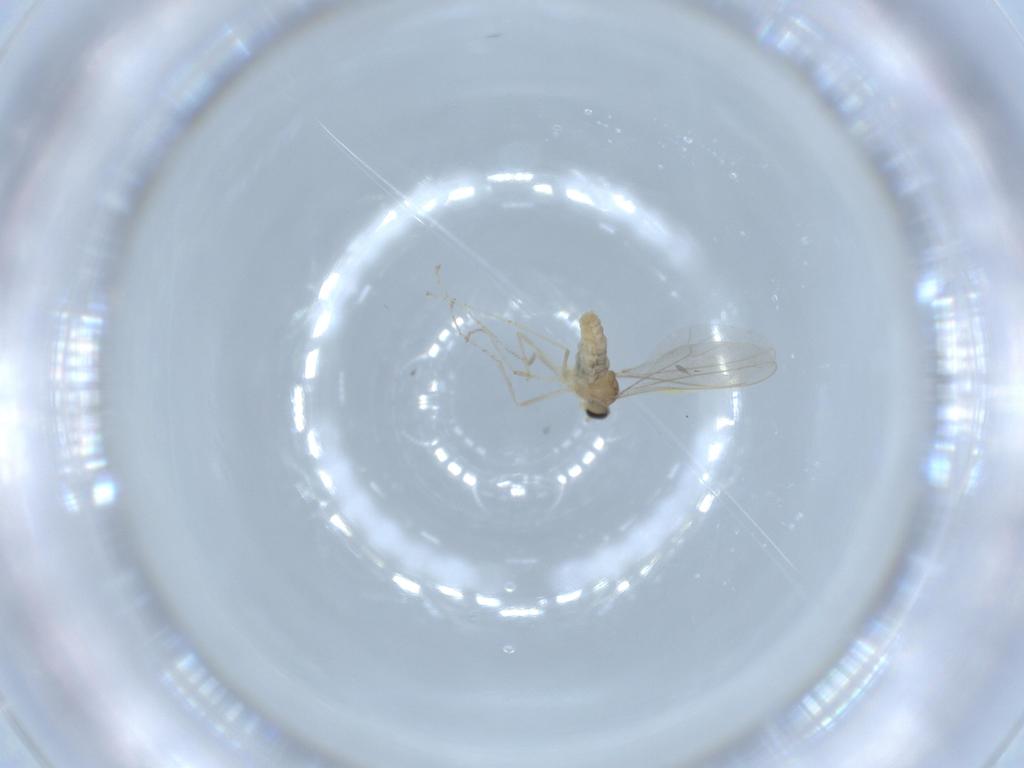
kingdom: Animalia
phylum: Arthropoda
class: Insecta
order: Diptera
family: Cecidomyiidae
